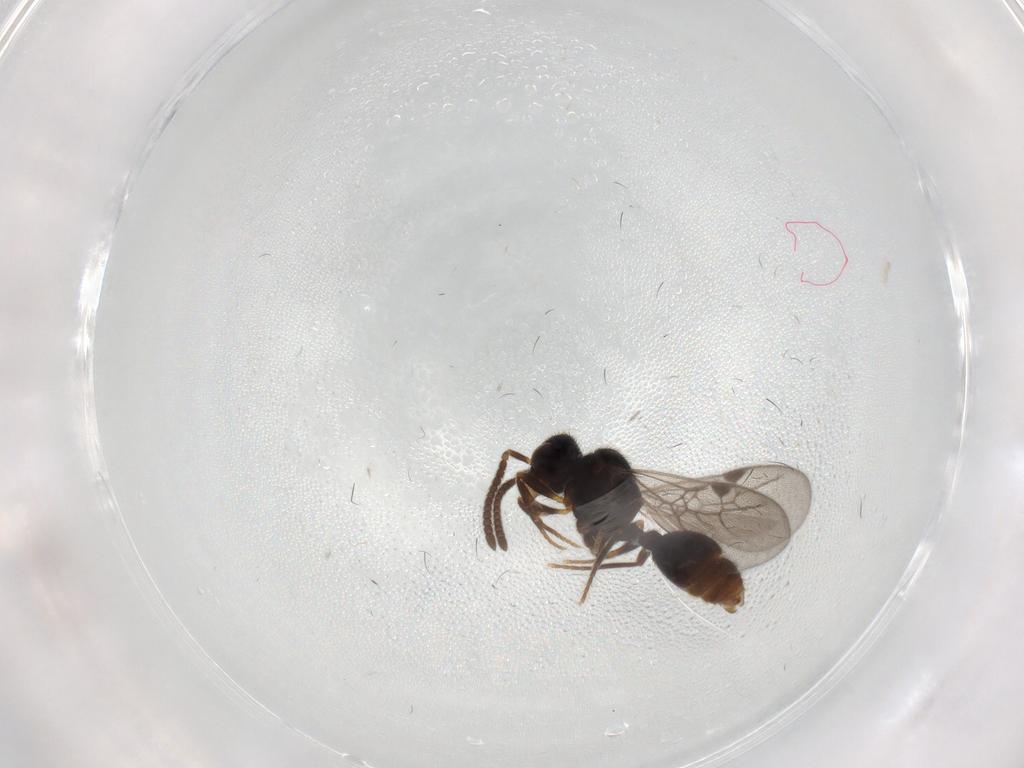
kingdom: Animalia
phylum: Arthropoda
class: Insecta
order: Hymenoptera
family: Formicidae
